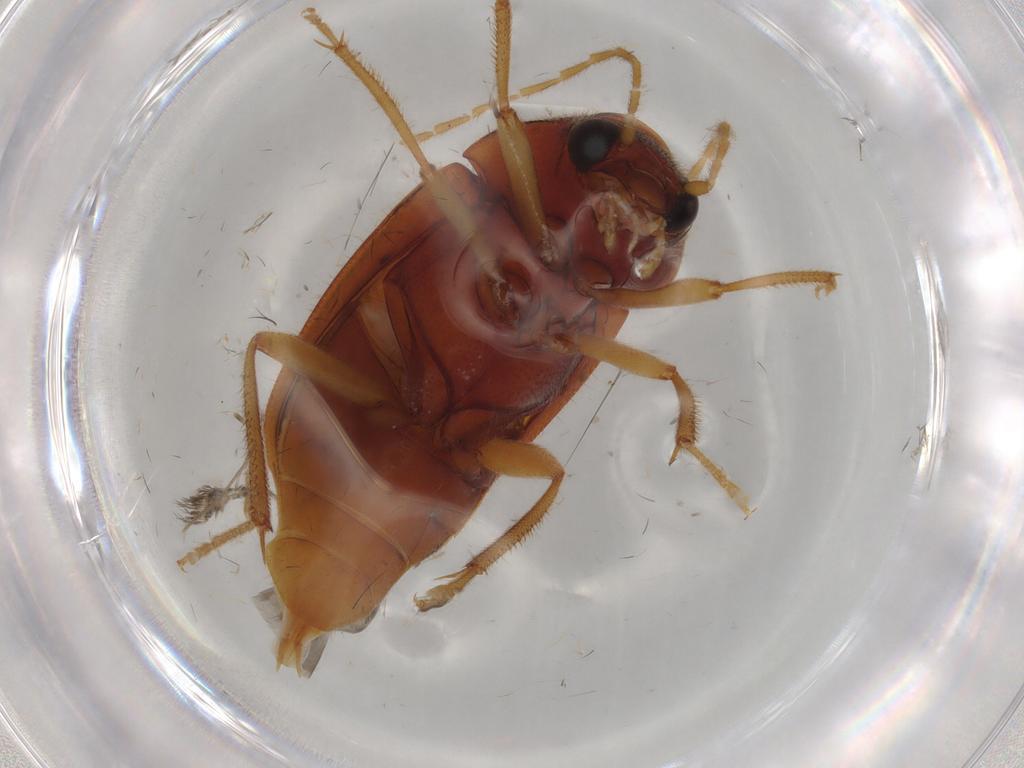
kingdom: Animalia
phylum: Arthropoda
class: Insecta
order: Coleoptera
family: Ptilodactylidae
